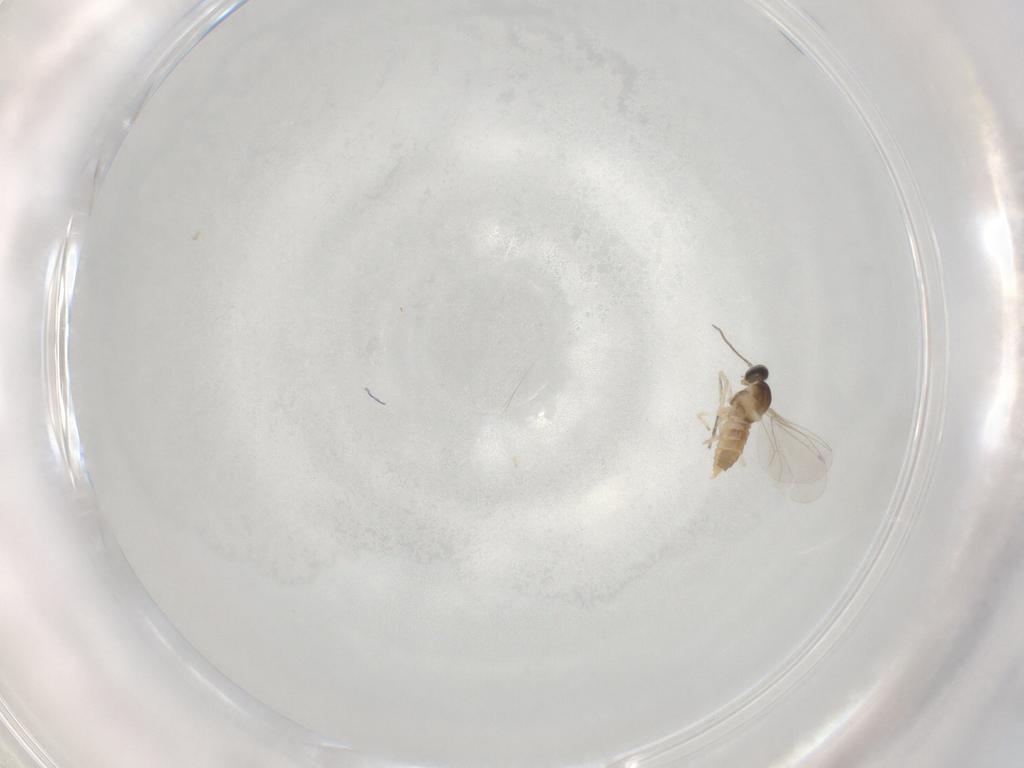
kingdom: Animalia
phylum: Arthropoda
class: Insecta
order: Diptera
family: Cecidomyiidae
